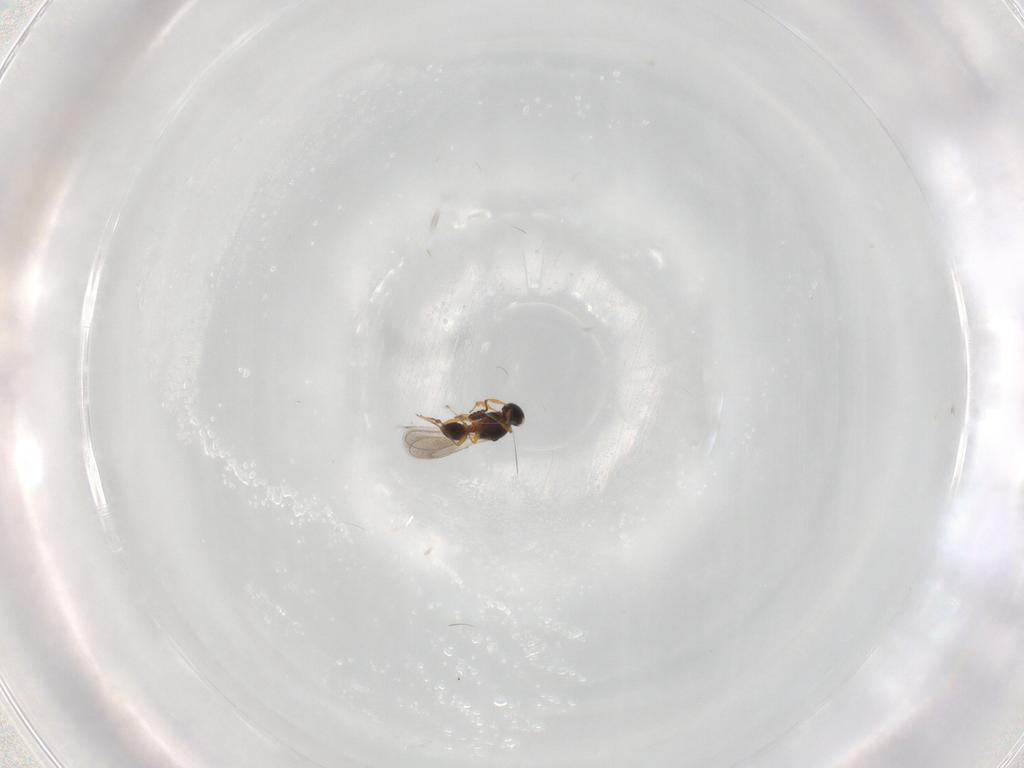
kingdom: Animalia
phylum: Arthropoda
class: Insecta
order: Hymenoptera
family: Platygastridae
